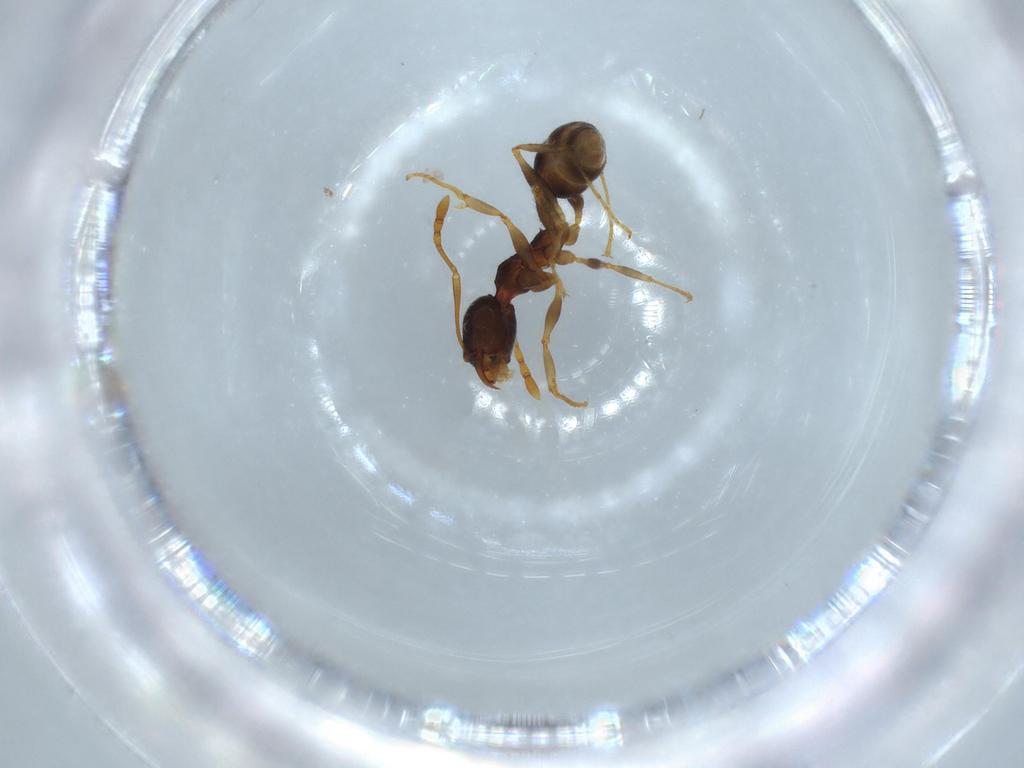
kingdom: Animalia
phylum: Arthropoda
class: Insecta
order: Hymenoptera
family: Formicidae
